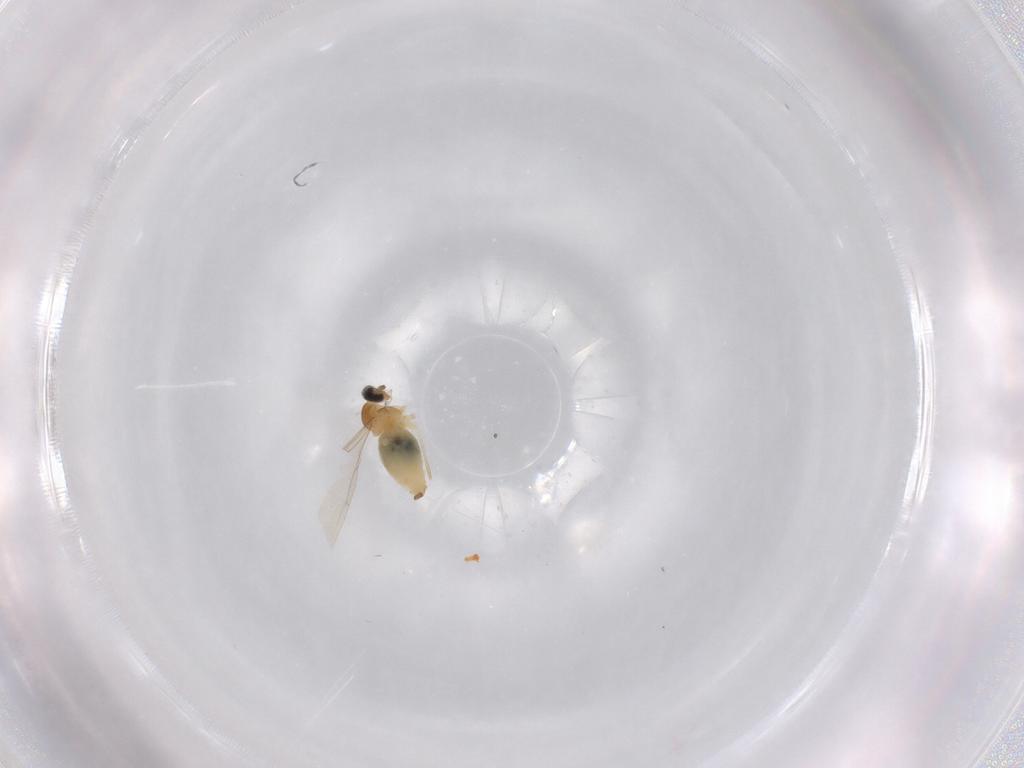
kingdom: Animalia
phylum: Arthropoda
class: Insecta
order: Diptera
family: Cecidomyiidae
